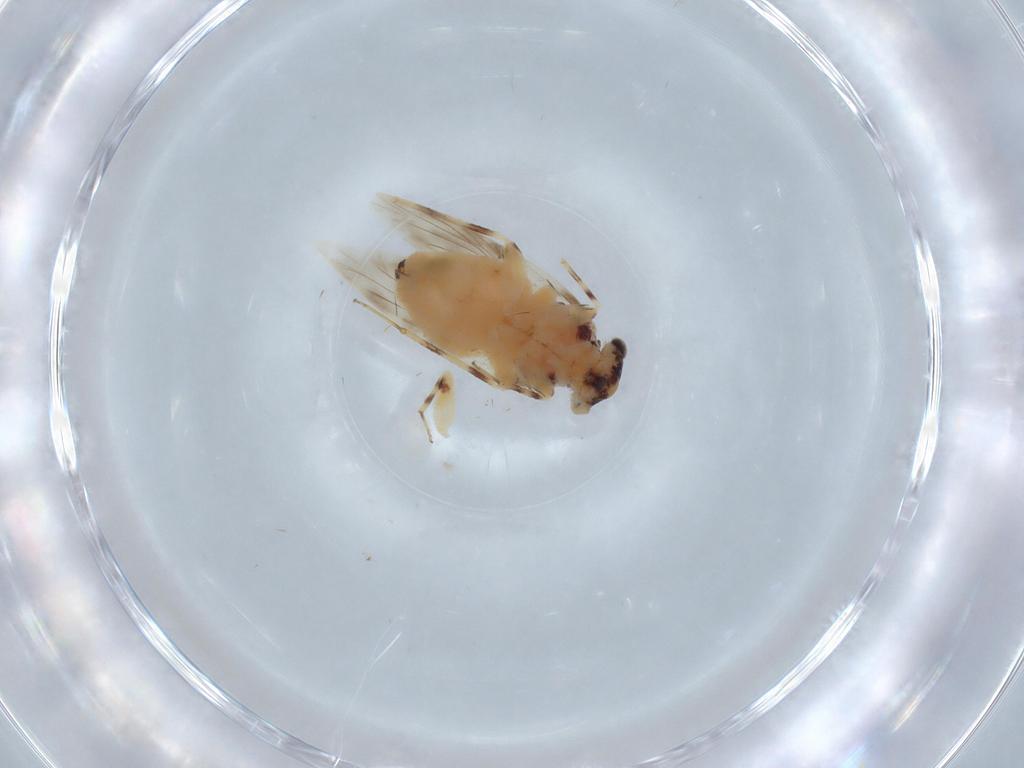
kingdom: Animalia
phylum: Arthropoda
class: Insecta
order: Psocodea
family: Lepidopsocidae
